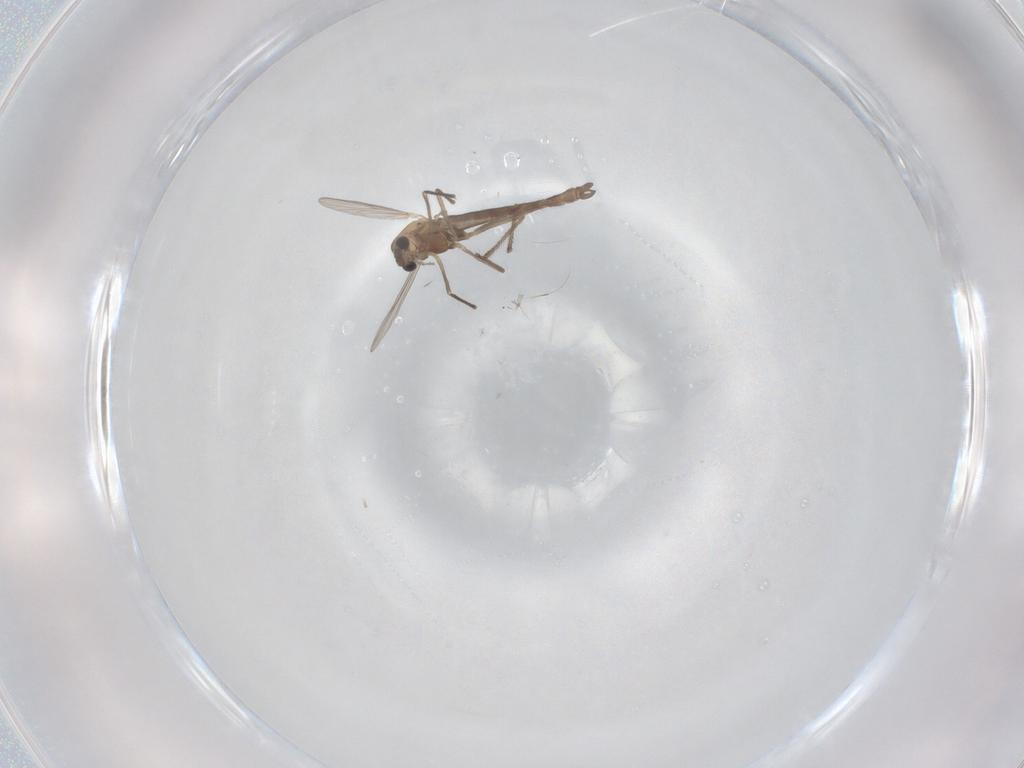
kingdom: Animalia
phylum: Arthropoda
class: Insecta
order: Diptera
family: Chironomidae
